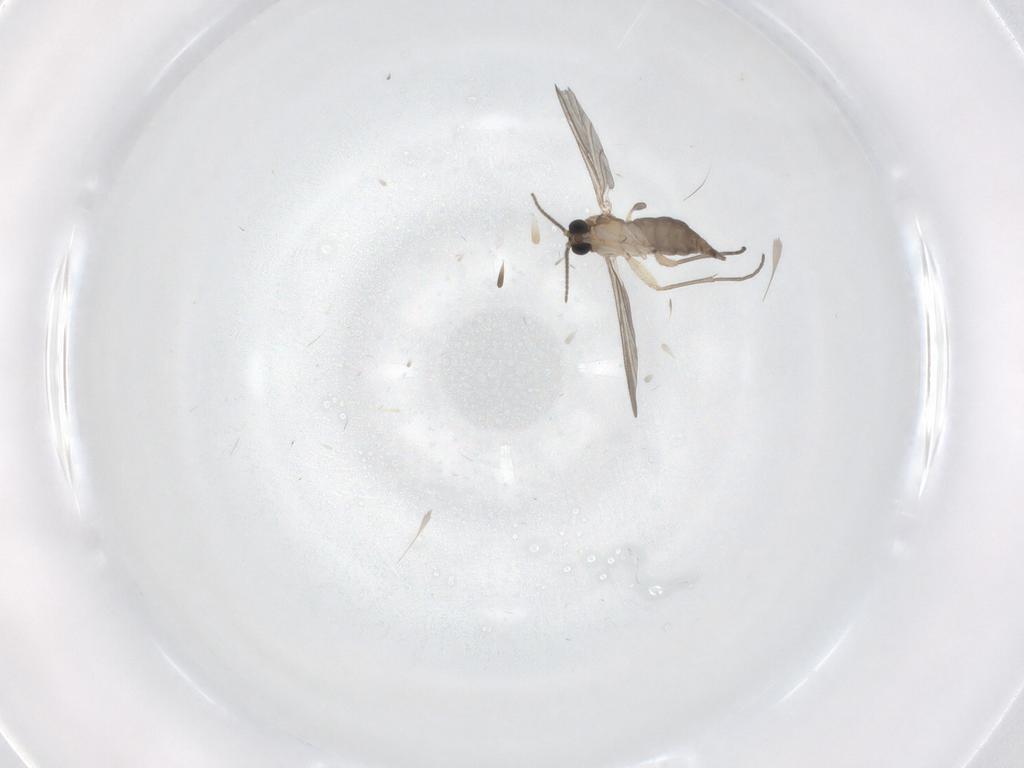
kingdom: Animalia
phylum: Arthropoda
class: Insecta
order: Diptera
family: Sciaridae
